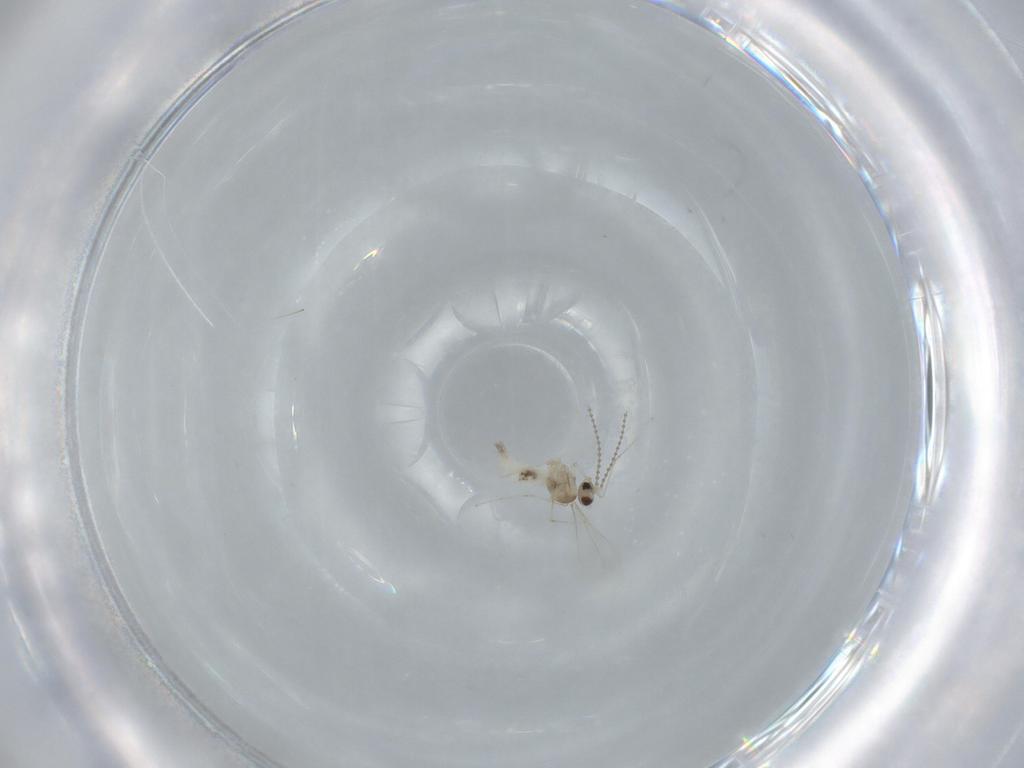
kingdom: Animalia
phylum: Arthropoda
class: Insecta
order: Diptera
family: Cecidomyiidae
